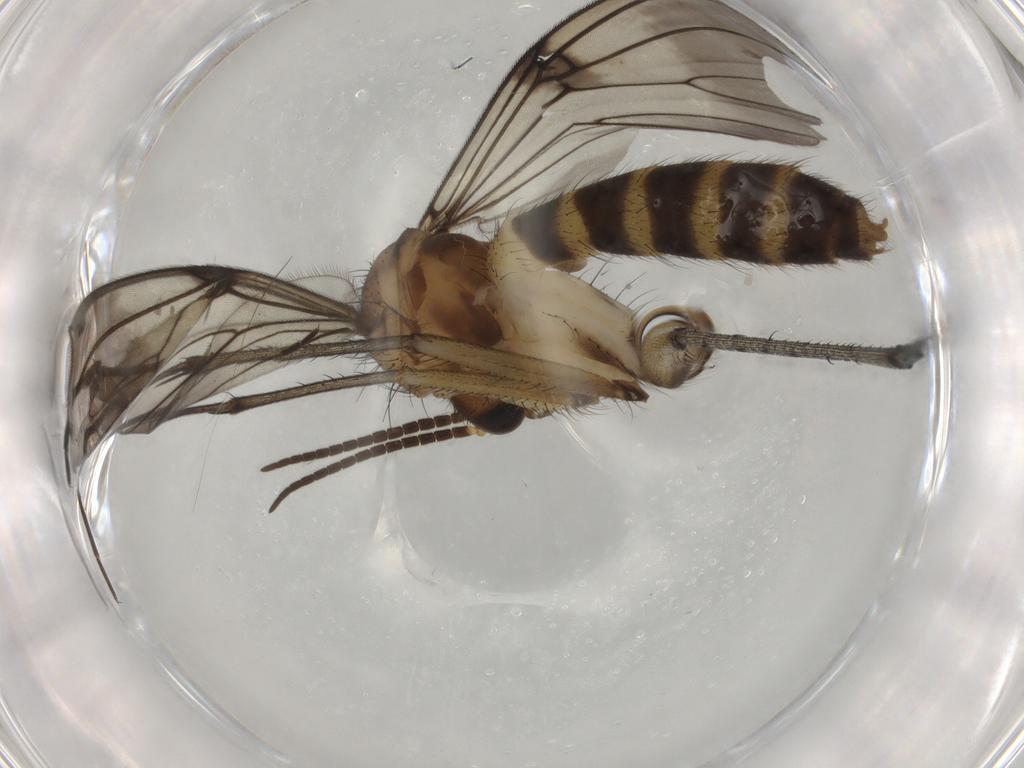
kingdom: Animalia
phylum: Arthropoda
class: Insecta
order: Diptera
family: Mycetophilidae
